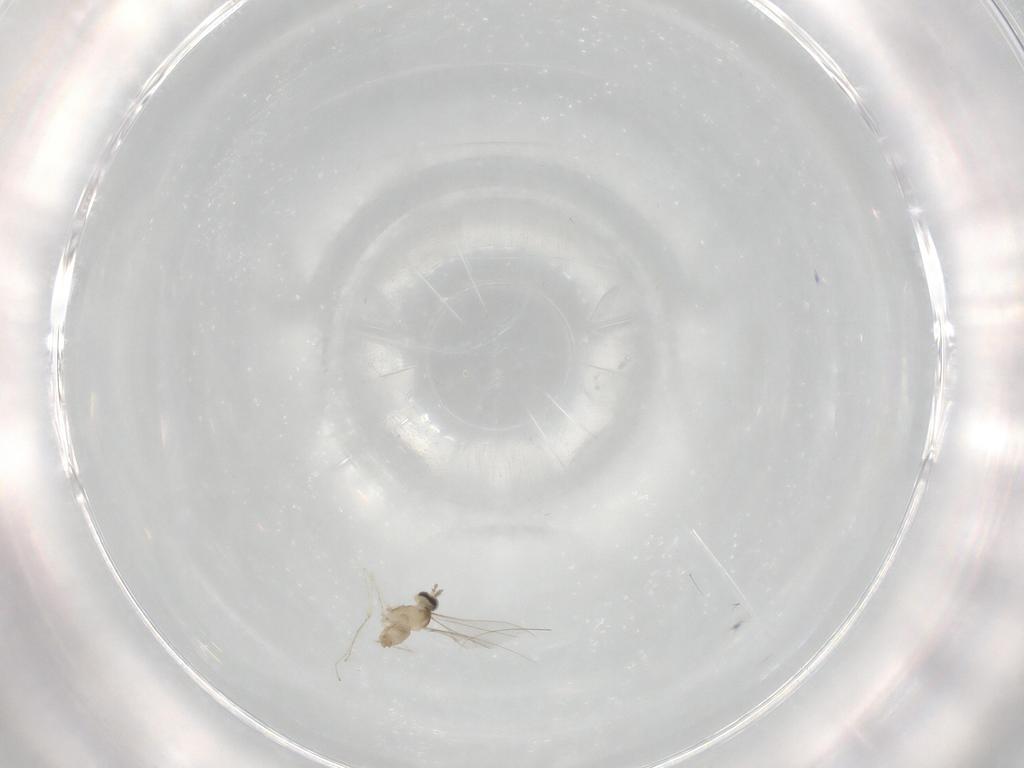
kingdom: Animalia
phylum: Arthropoda
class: Insecta
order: Diptera
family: Cecidomyiidae
